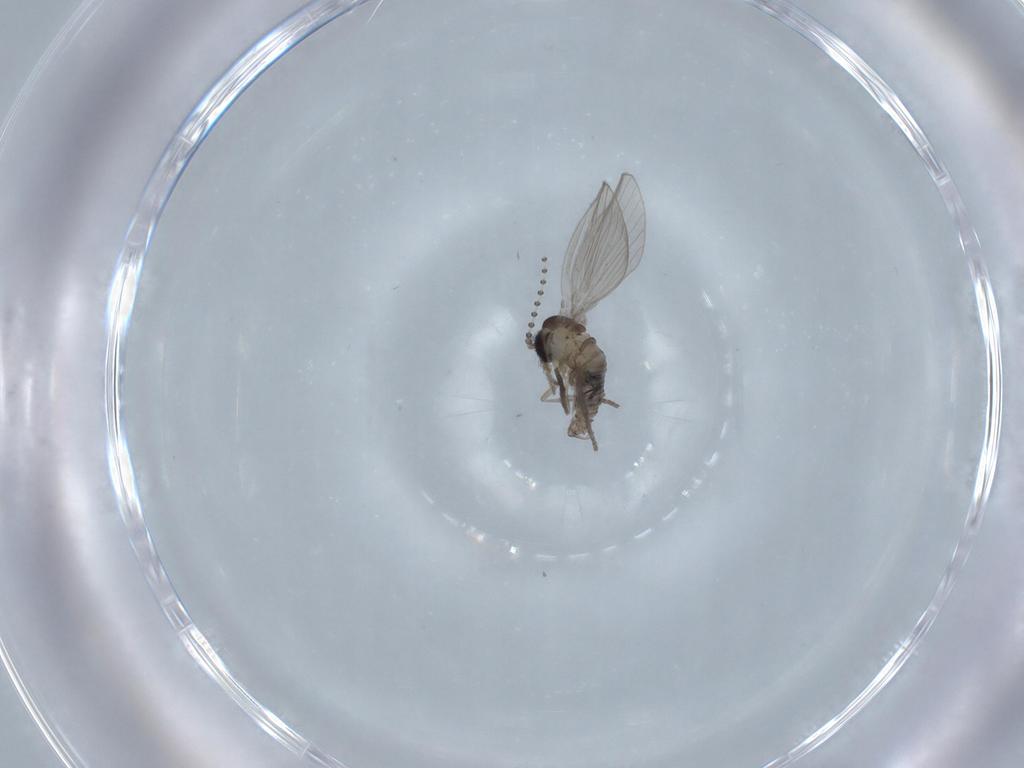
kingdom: Animalia
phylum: Arthropoda
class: Insecta
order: Diptera
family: Psychodidae
